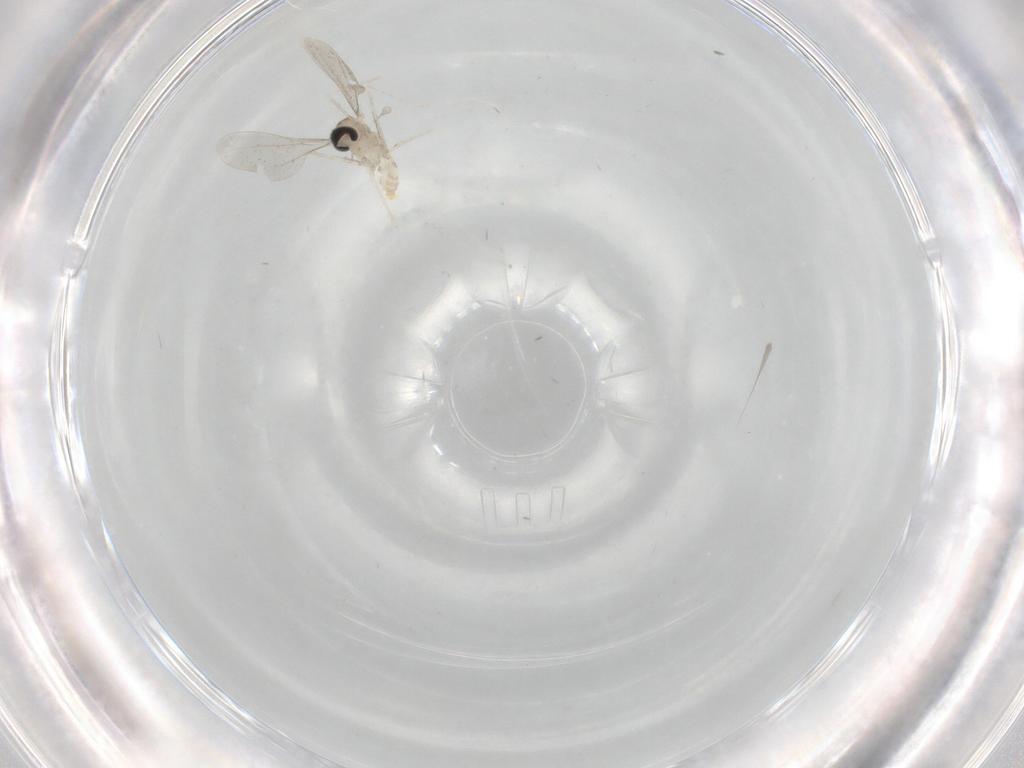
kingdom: Animalia
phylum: Arthropoda
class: Insecta
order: Diptera
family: Cecidomyiidae
